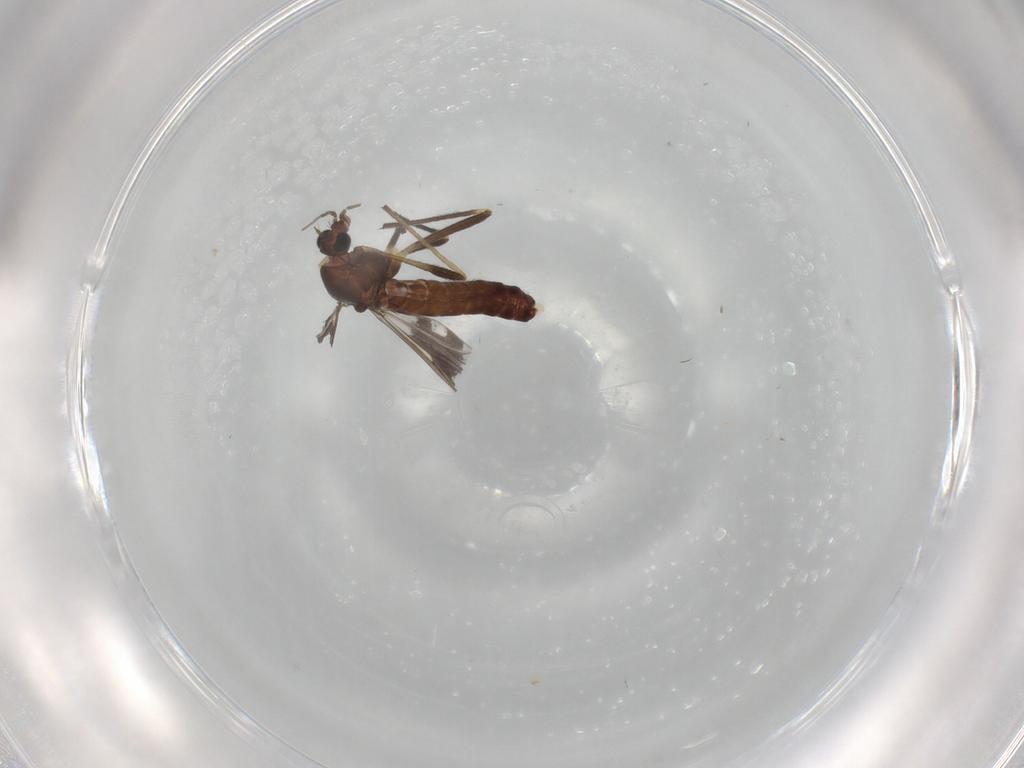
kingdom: Animalia
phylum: Arthropoda
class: Insecta
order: Diptera
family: Chironomidae
